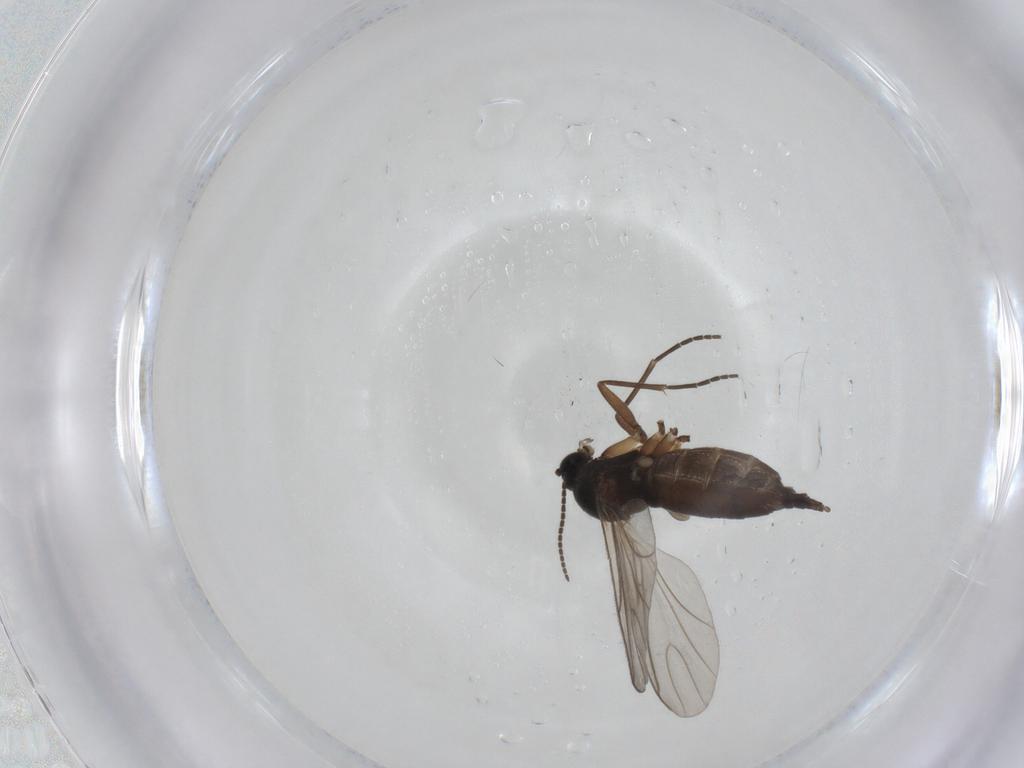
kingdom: Animalia
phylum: Arthropoda
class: Insecta
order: Diptera
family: Sciaridae
